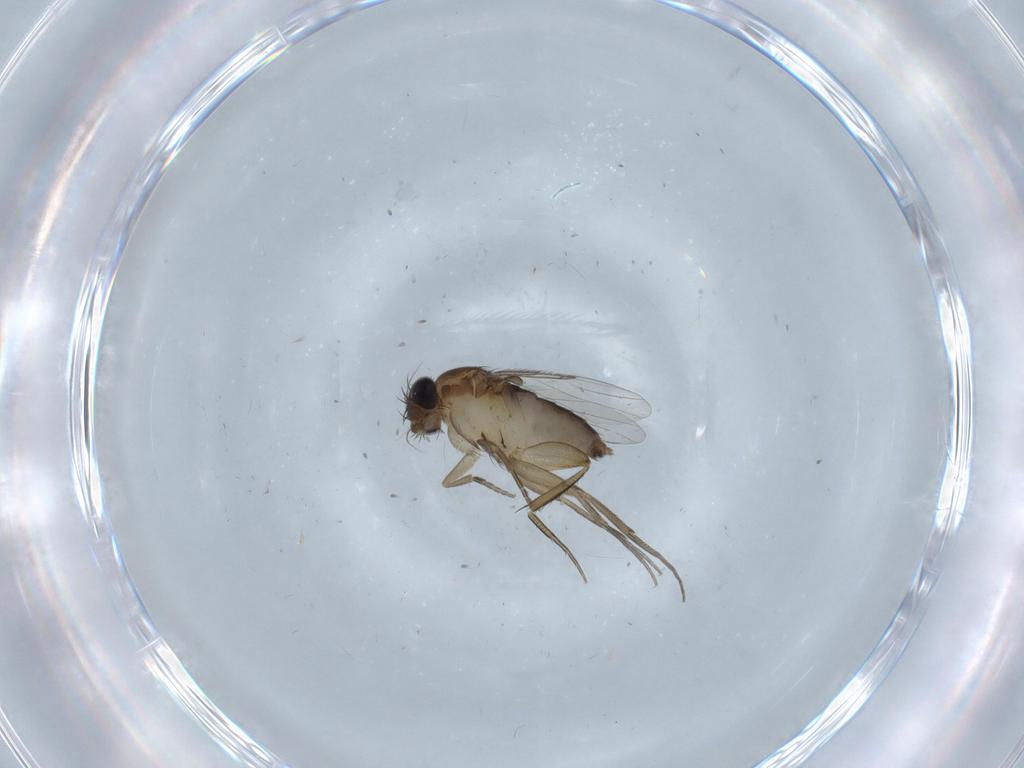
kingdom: Animalia
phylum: Arthropoda
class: Insecta
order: Diptera
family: Phoridae
